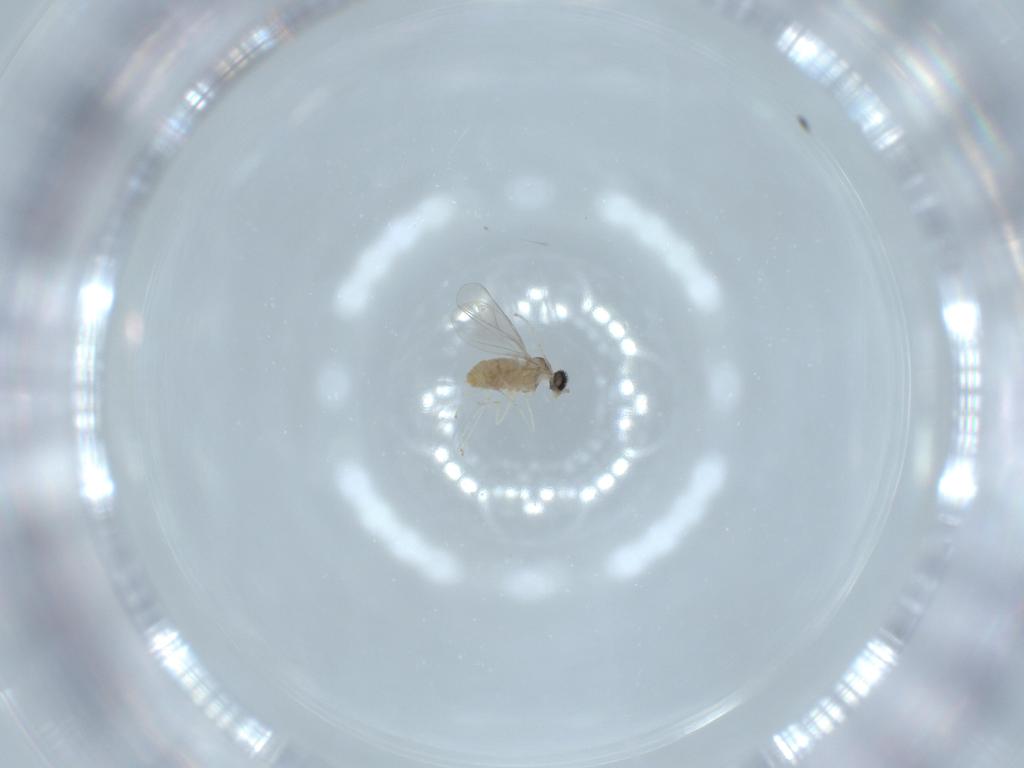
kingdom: Animalia
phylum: Arthropoda
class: Insecta
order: Diptera
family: Cecidomyiidae
